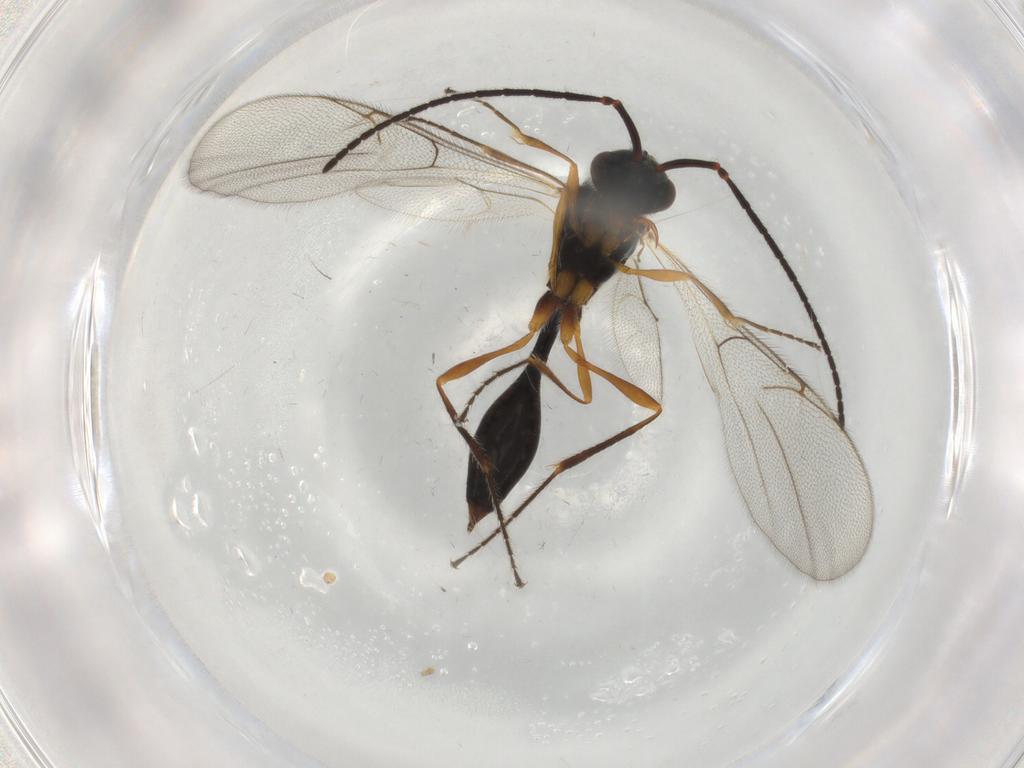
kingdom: Animalia
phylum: Arthropoda
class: Insecta
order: Hymenoptera
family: Diapriidae
